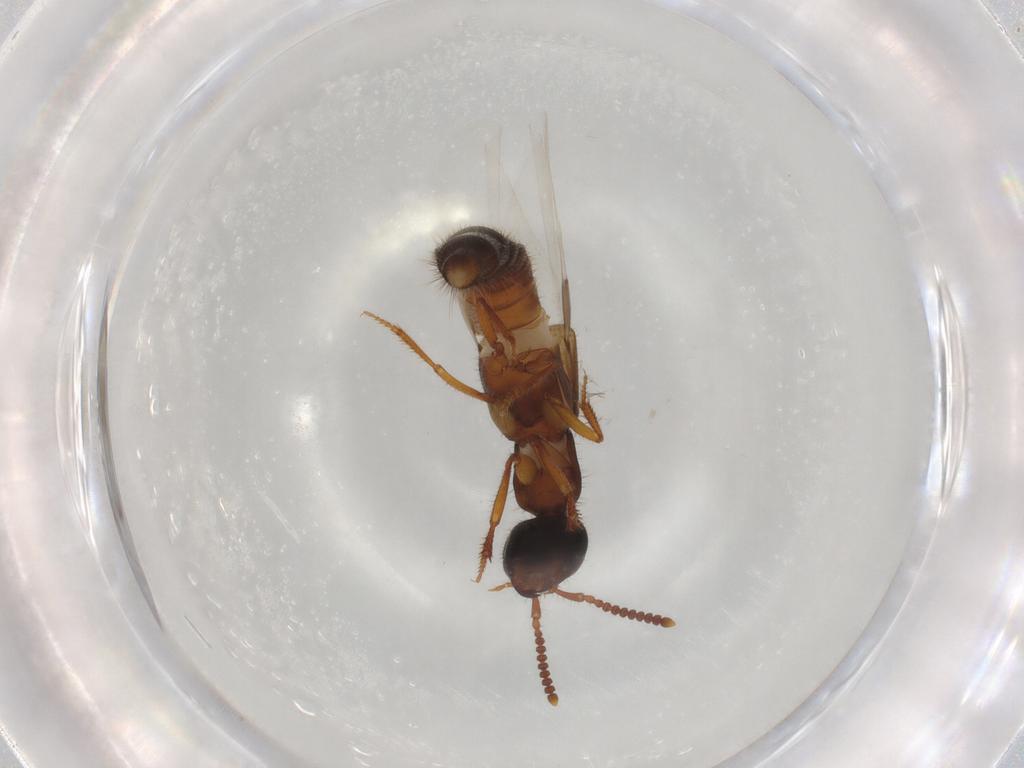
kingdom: Animalia
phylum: Arthropoda
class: Insecta
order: Coleoptera
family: Staphylinidae
